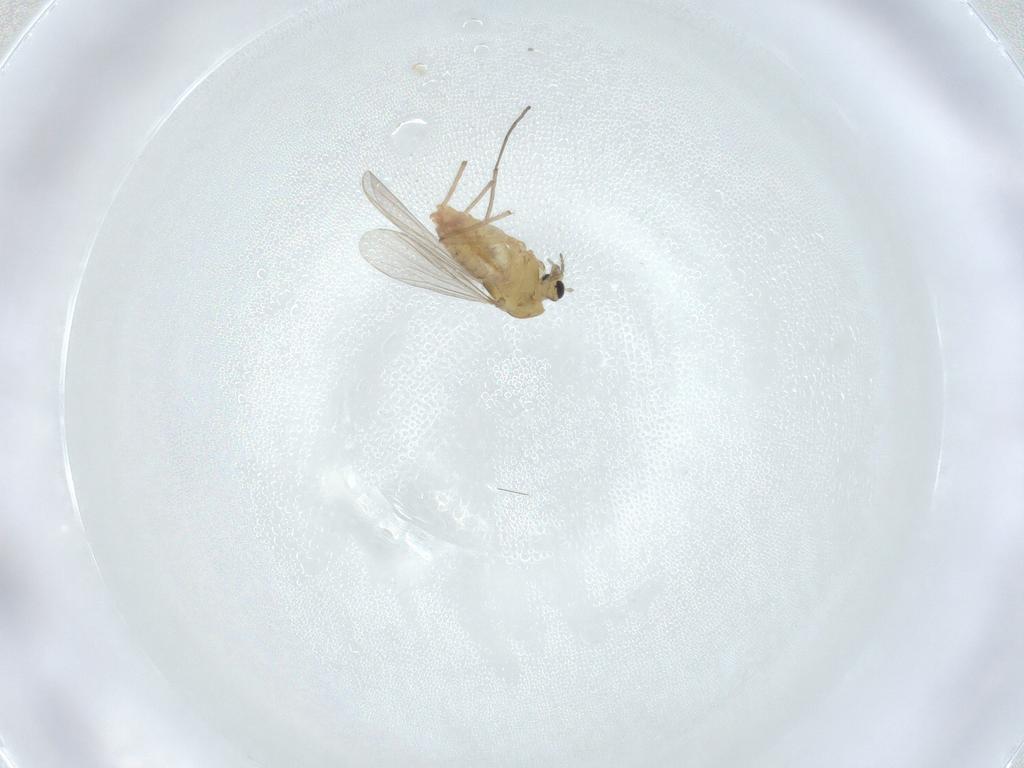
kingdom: Animalia
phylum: Arthropoda
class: Insecta
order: Diptera
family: Chironomidae
